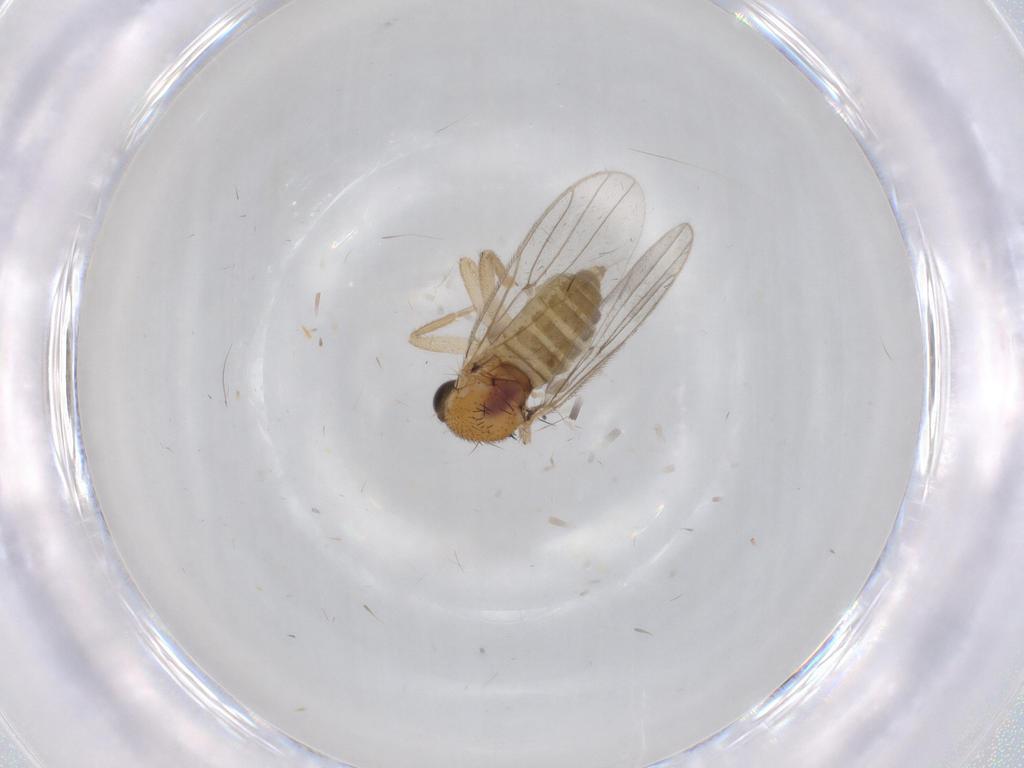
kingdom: Animalia
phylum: Arthropoda
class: Insecta
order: Diptera
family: Hybotidae
